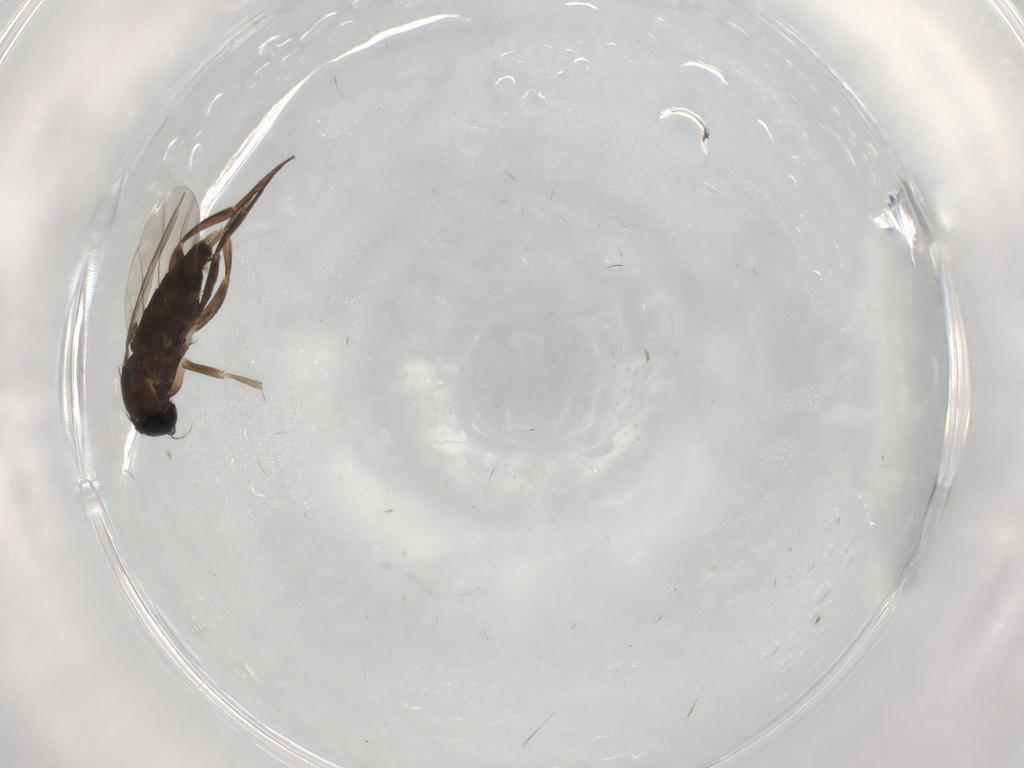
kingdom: Animalia
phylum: Arthropoda
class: Insecta
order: Diptera
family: Phoridae
